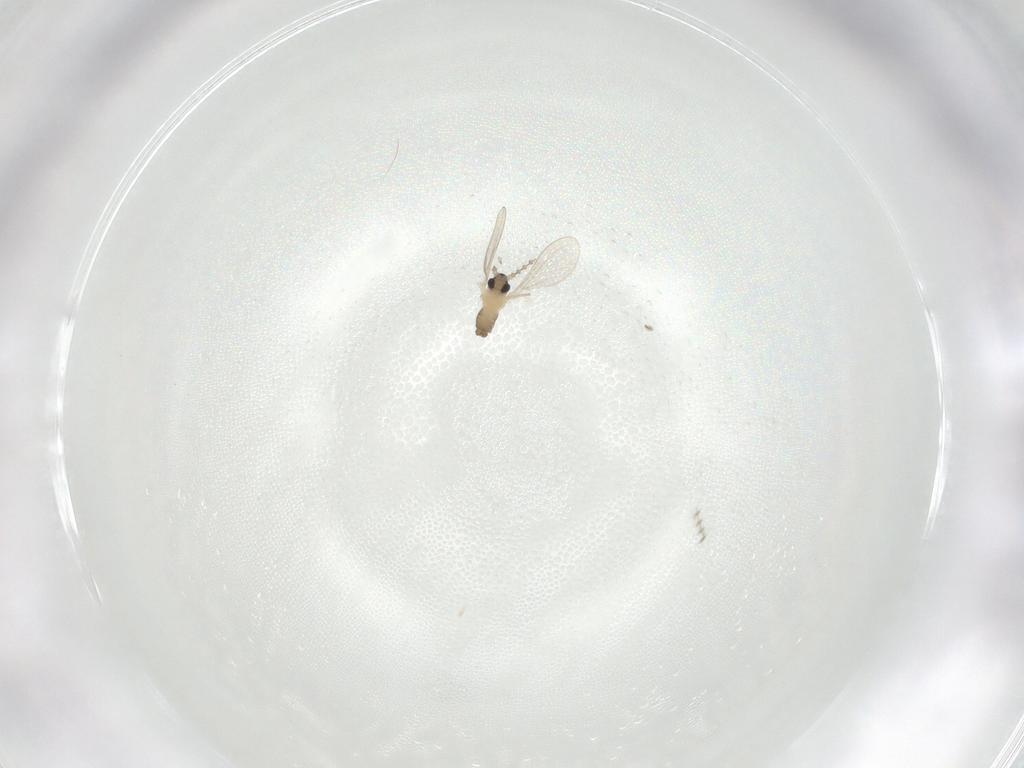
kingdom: Animalia
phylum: Arthropoda
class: Insecta
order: Diptera
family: Cecidomyiidae
